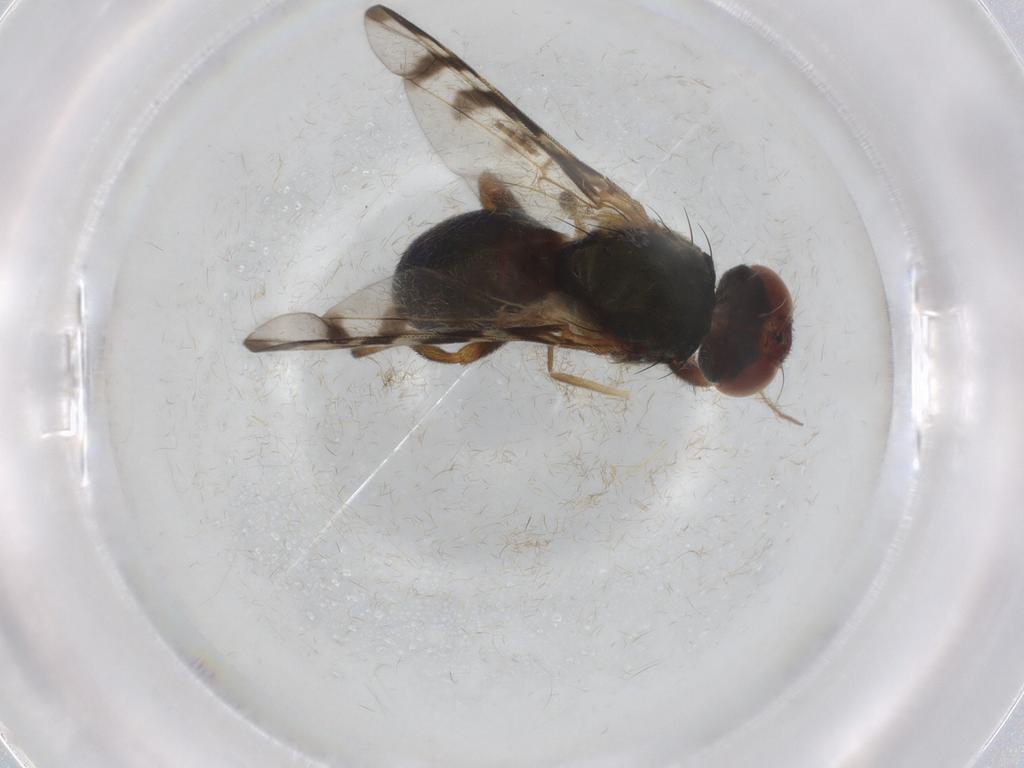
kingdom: Animalia
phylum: Arthropoda
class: Insecta
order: Diptera
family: Platystomatidae
